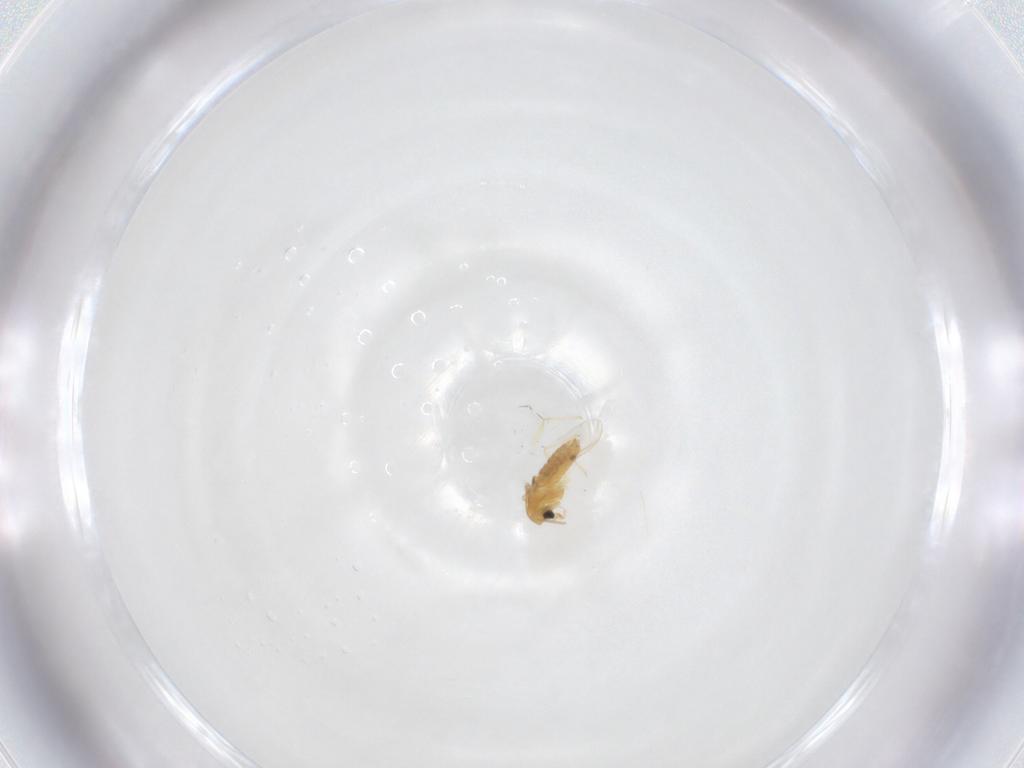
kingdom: Animalia
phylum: Arthropoda
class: Insecta
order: Diptera
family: Chironomidae
